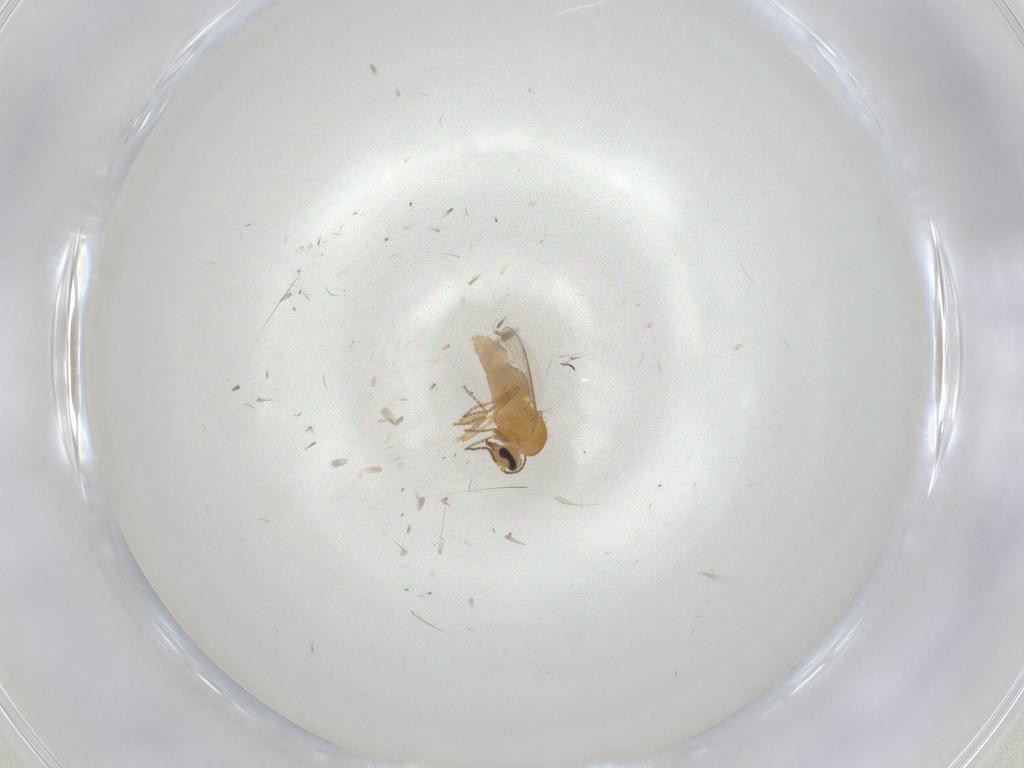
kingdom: Animalia
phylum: Arthropoda
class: Insecta
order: Diptera
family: Ceratopogonidae
